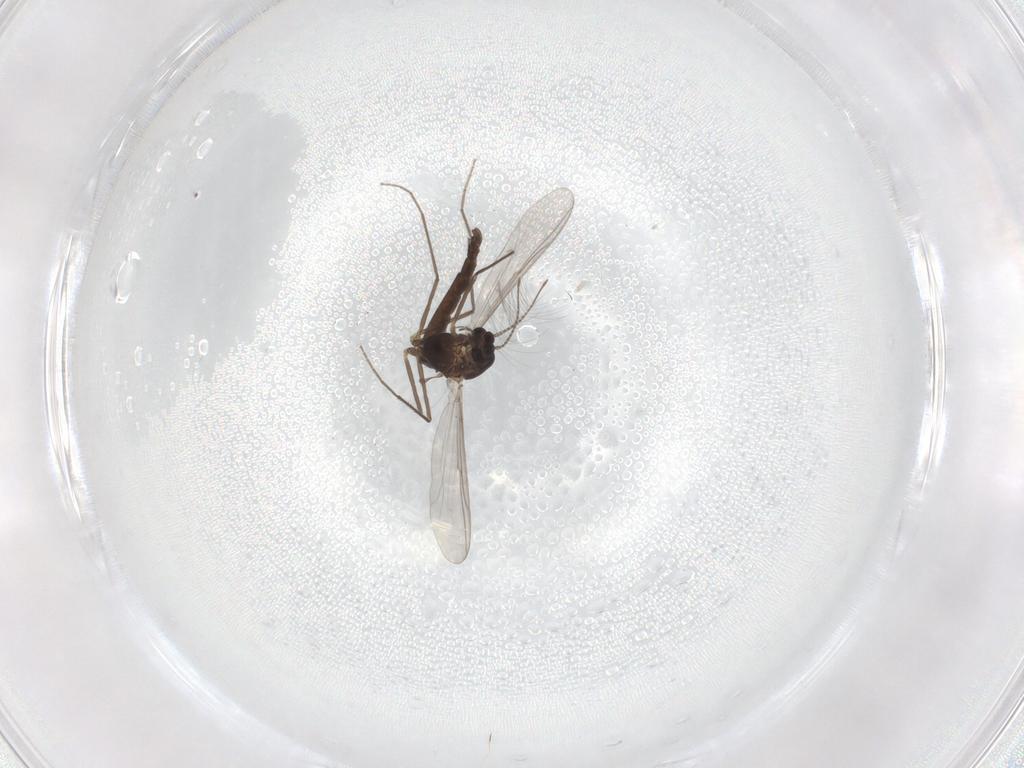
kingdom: Animalia
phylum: Arthropoda
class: Insecta
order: Diptera
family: Chironomidae
